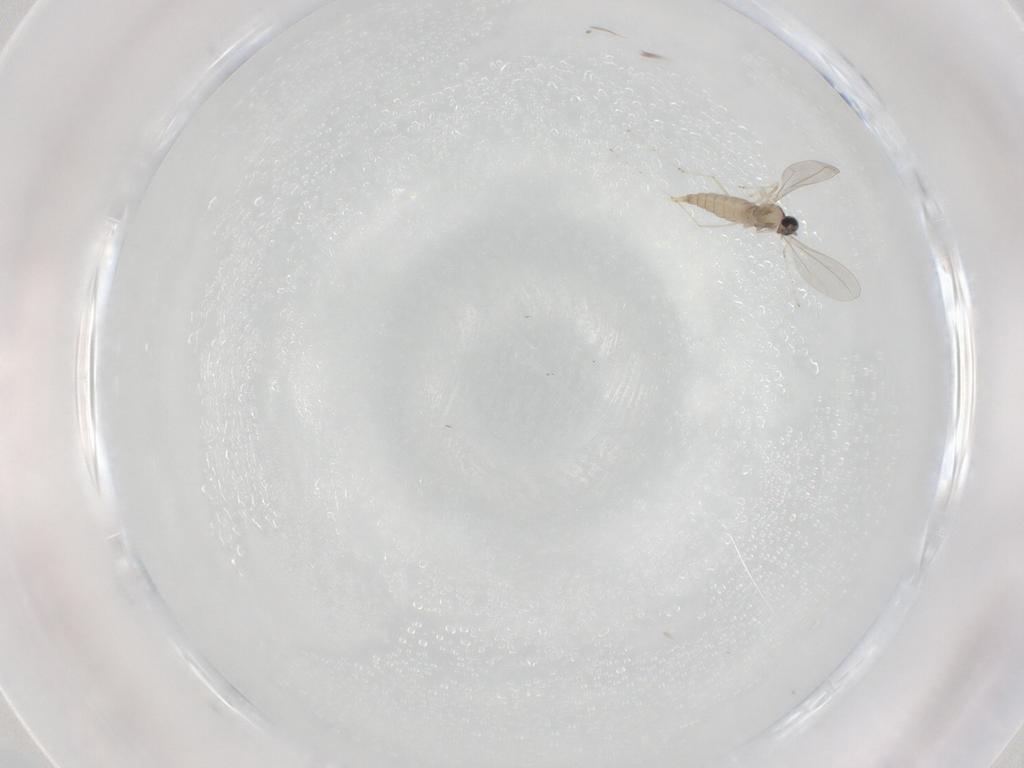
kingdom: Animalia
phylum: Arthropoda
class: Insecta
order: Diptera
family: Cecidomyiidae
